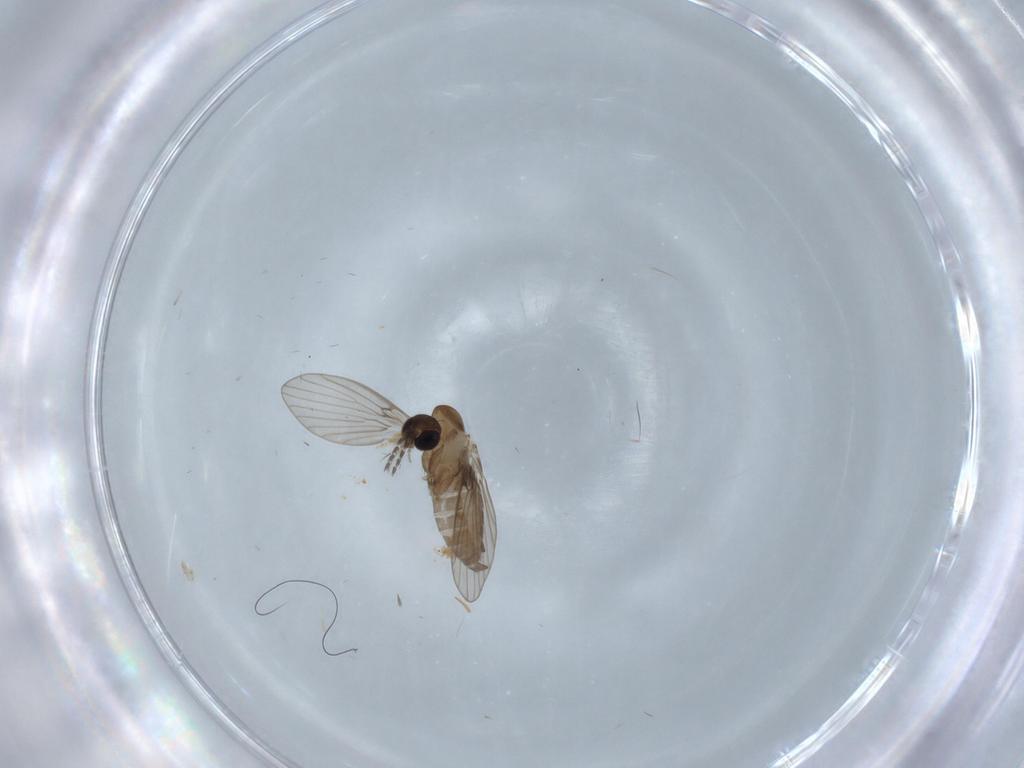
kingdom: Animalia
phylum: Arthropoda
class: Insecta
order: Diptera
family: Psychodidae
